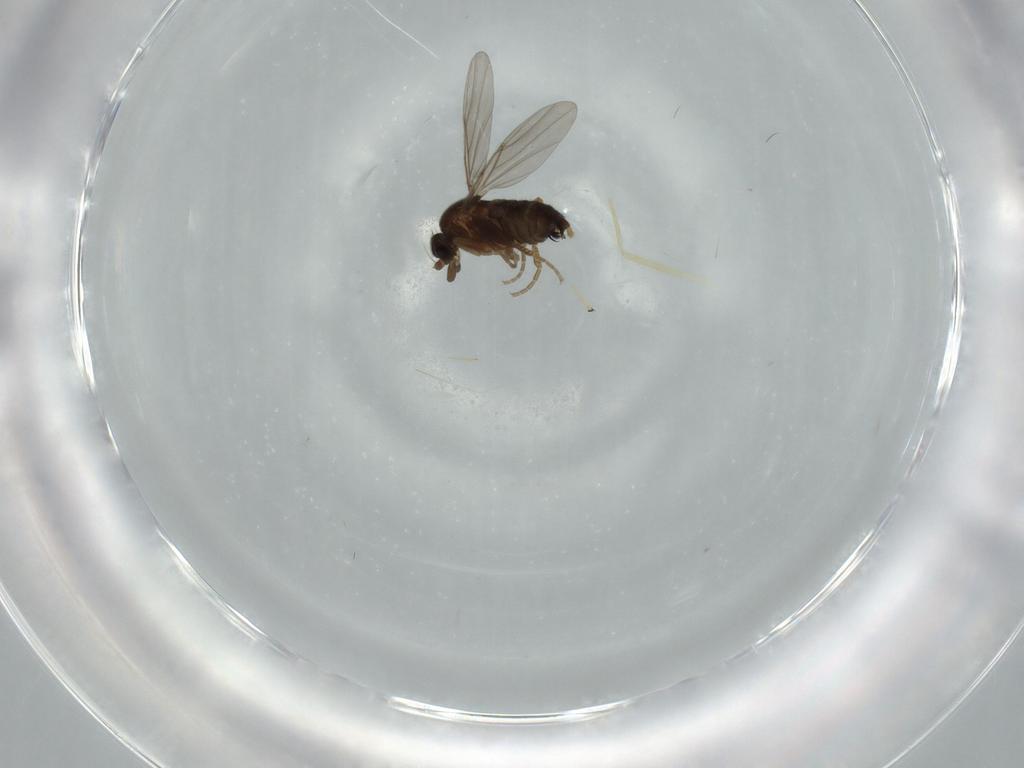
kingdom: Animalia
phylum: Arthropoda
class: Insecta
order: Diptera
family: Chironomidae
